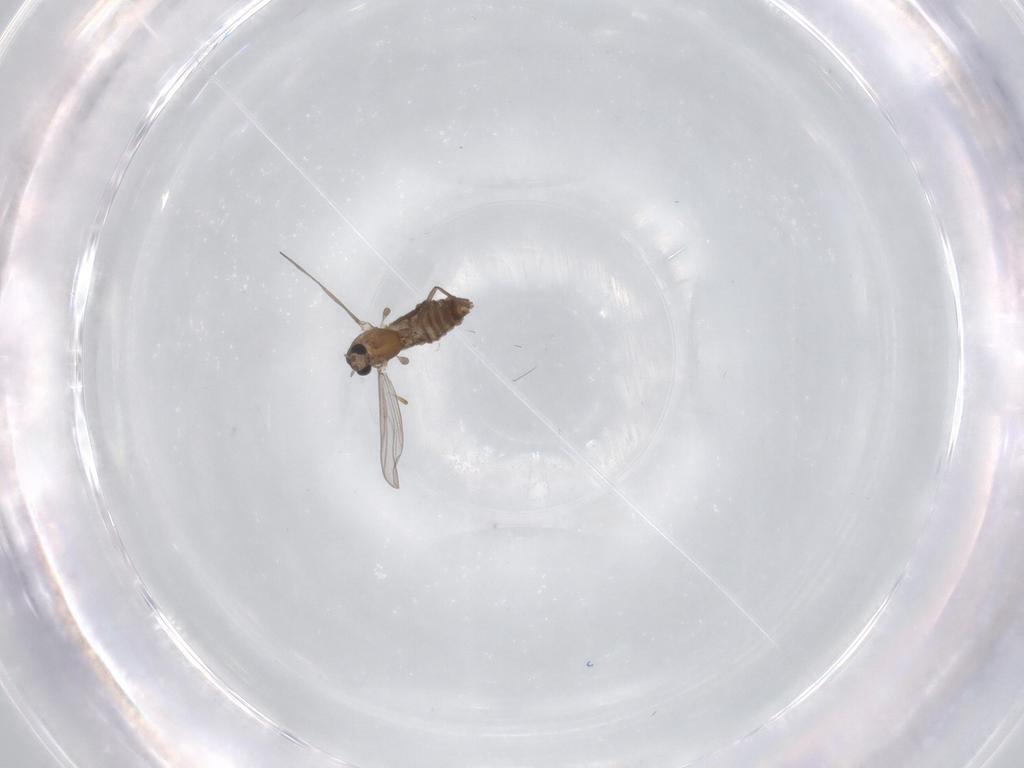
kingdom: Animalia
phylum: Arthropoda
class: Insecta
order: Diptera
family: Chironomidae
